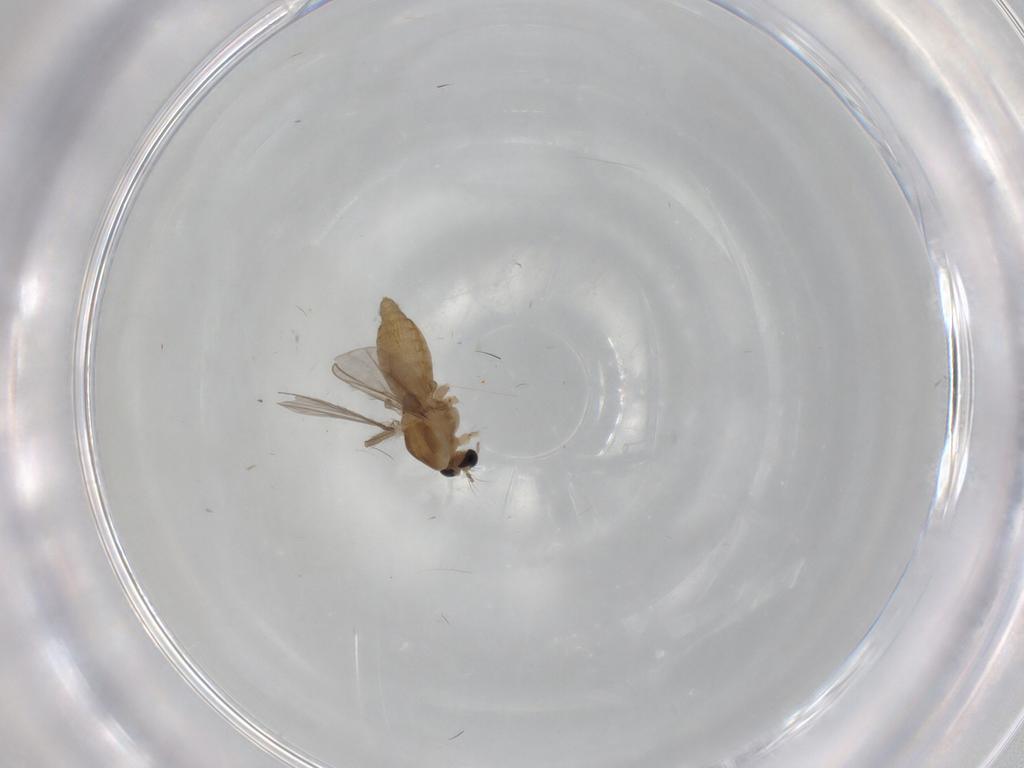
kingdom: Animalia
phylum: Arthropoda
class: Insecta
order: Diptera
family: Chironomidae
